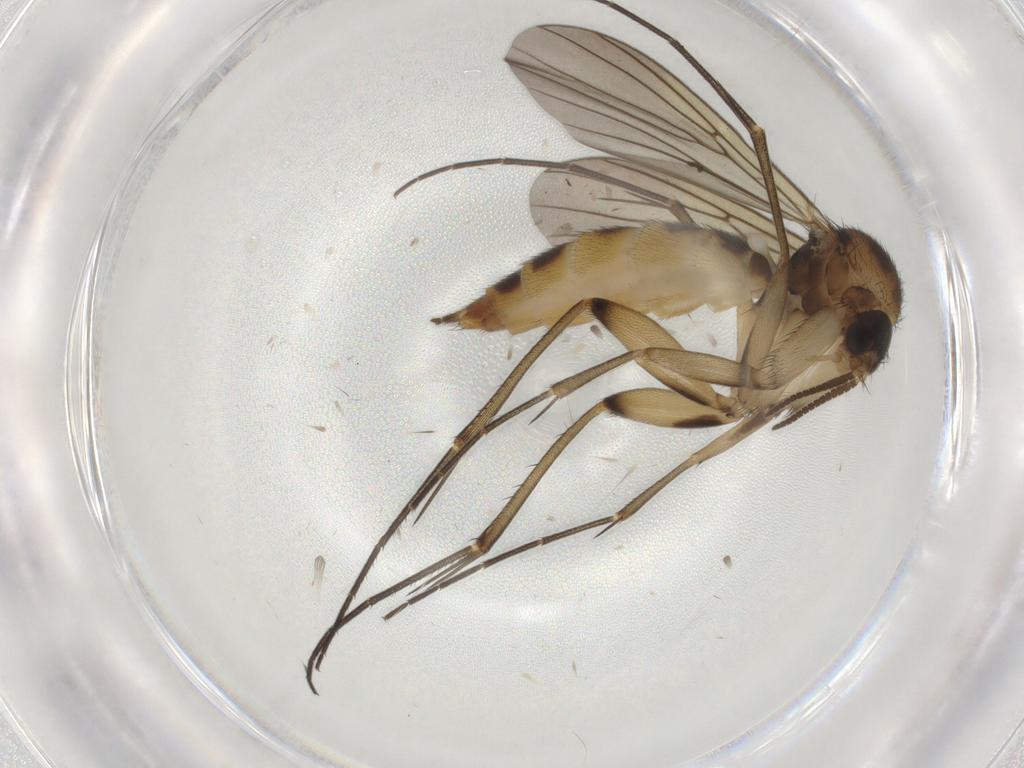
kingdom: Animalia
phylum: Arthropoda
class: Insecta
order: Diptera
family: Mycetophilidae
